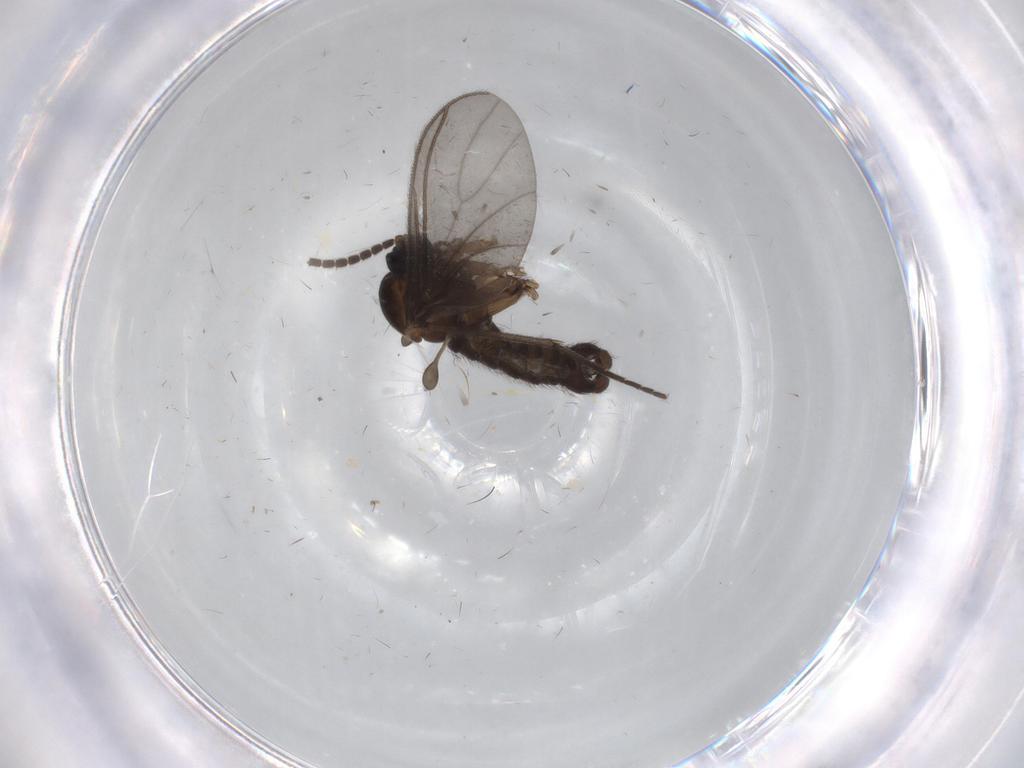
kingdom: Animalia
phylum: Arthropoda
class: Insecta
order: Diptera
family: Sciaridae
